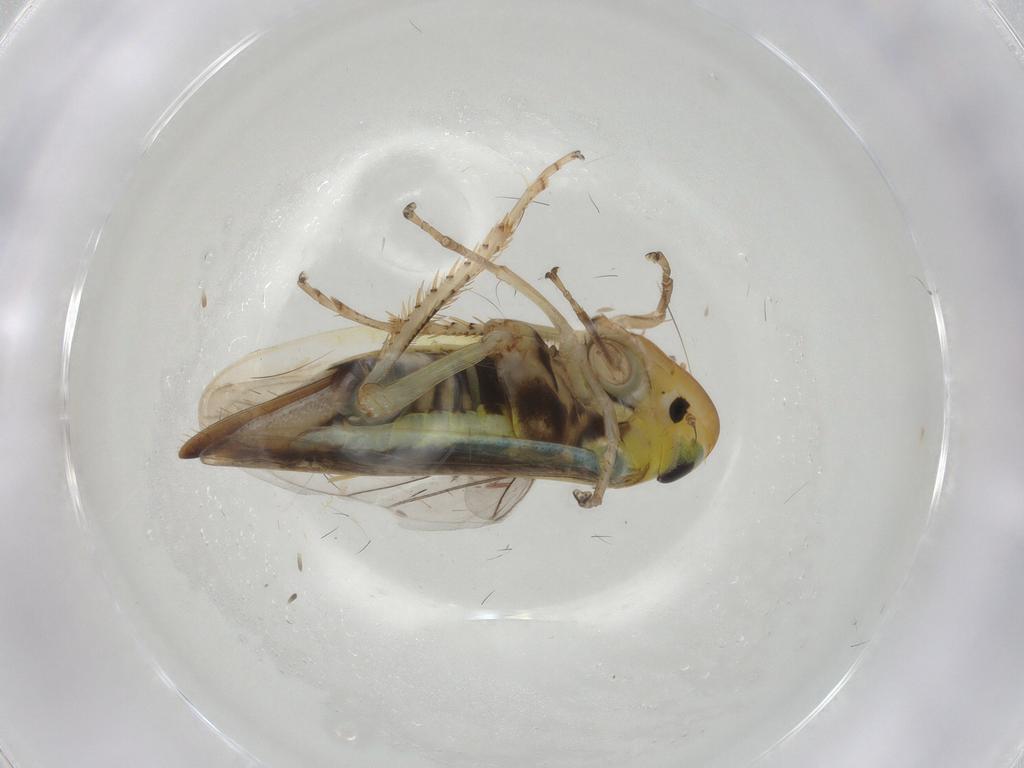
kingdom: Animalia
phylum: Arthropoda
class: Insecta
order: Hemiptera
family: Cicadellidae
